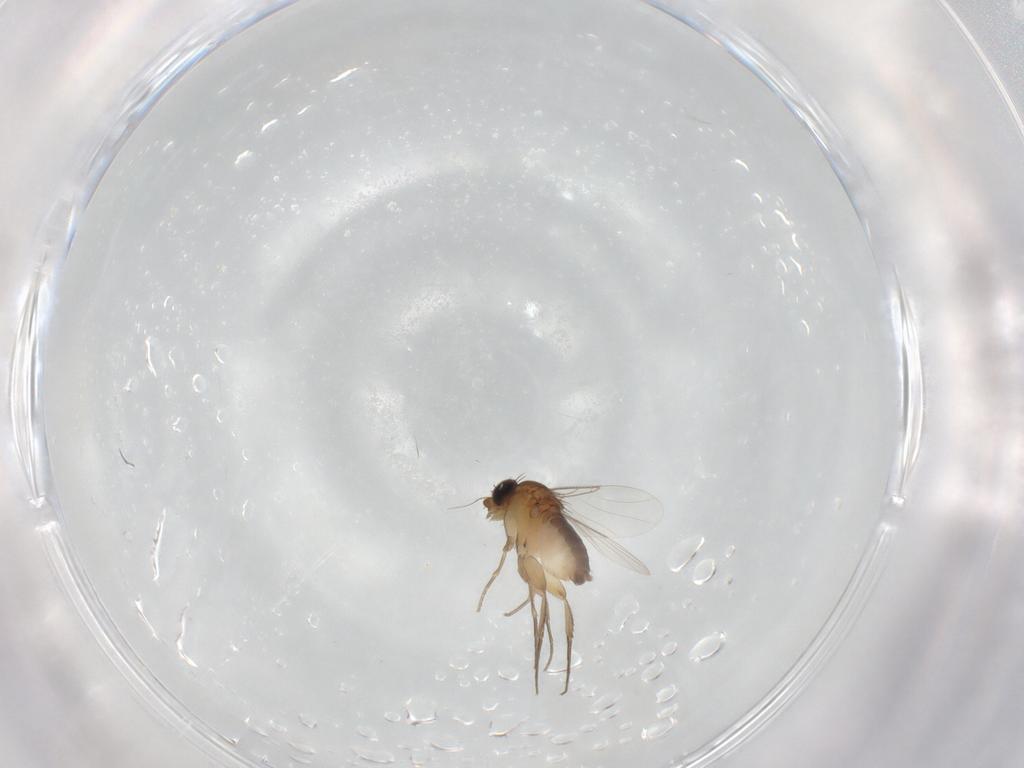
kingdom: Animalia
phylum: Arthropoda
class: Insecta
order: Diptera
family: Phoridae
